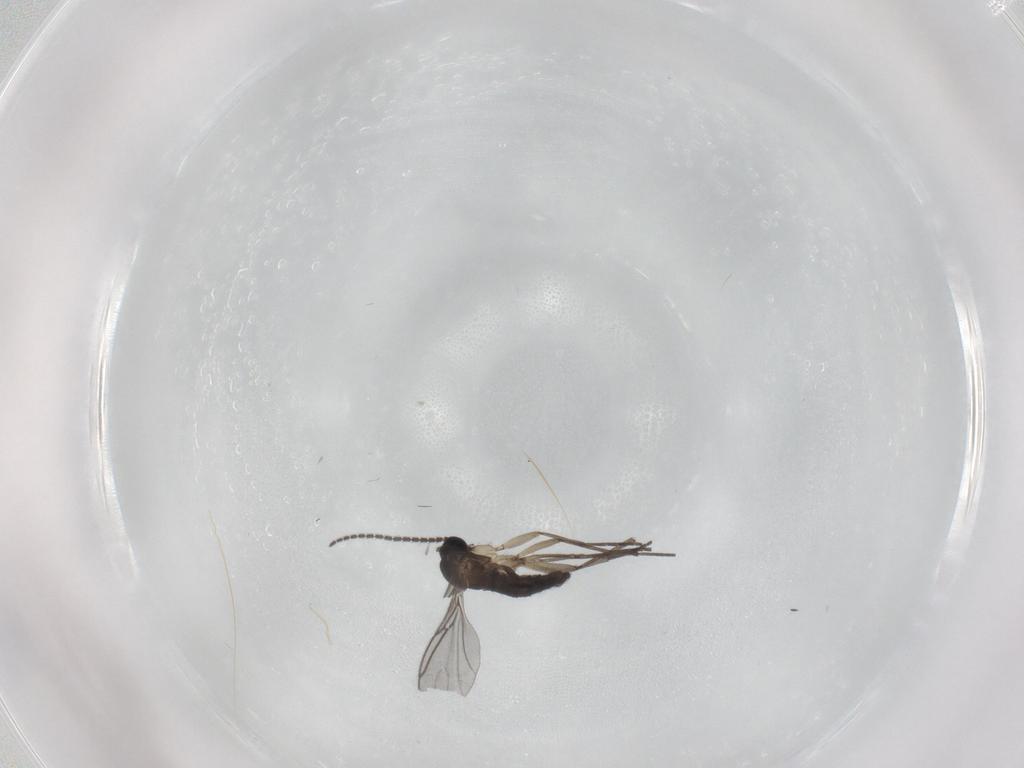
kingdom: Animalia
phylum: Arthropoda
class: Insecta
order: Diptera
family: Sciaridae
